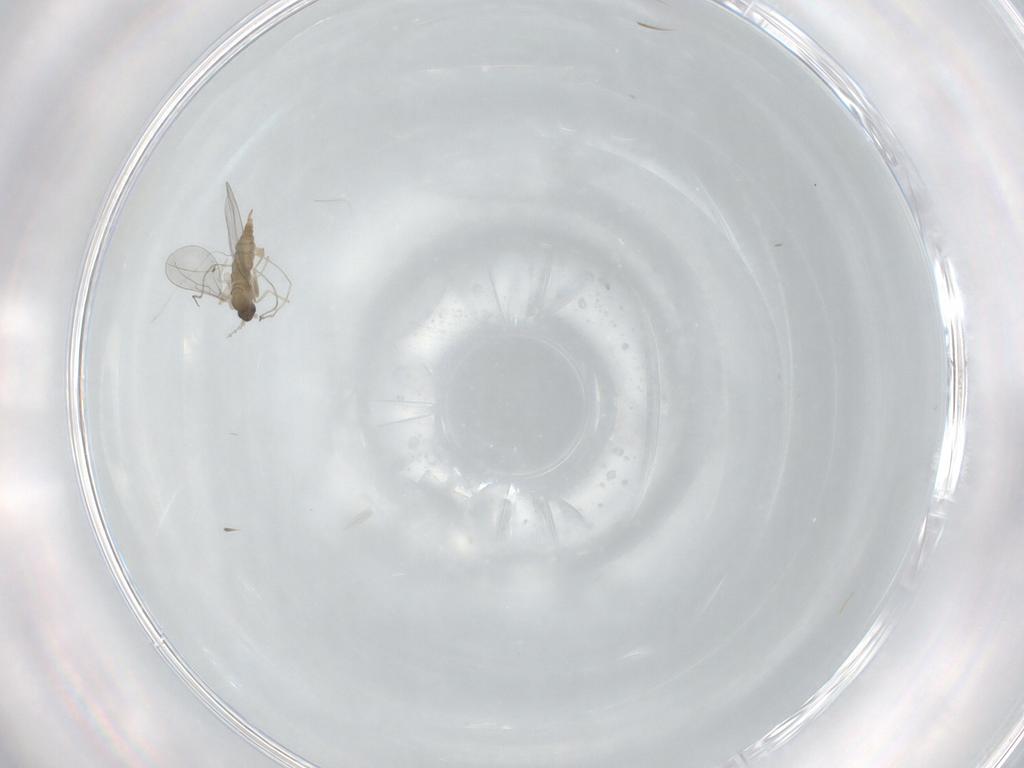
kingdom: Animalia
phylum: Arthropoda
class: Insecta
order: Diptera
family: Cecidomyiidae
